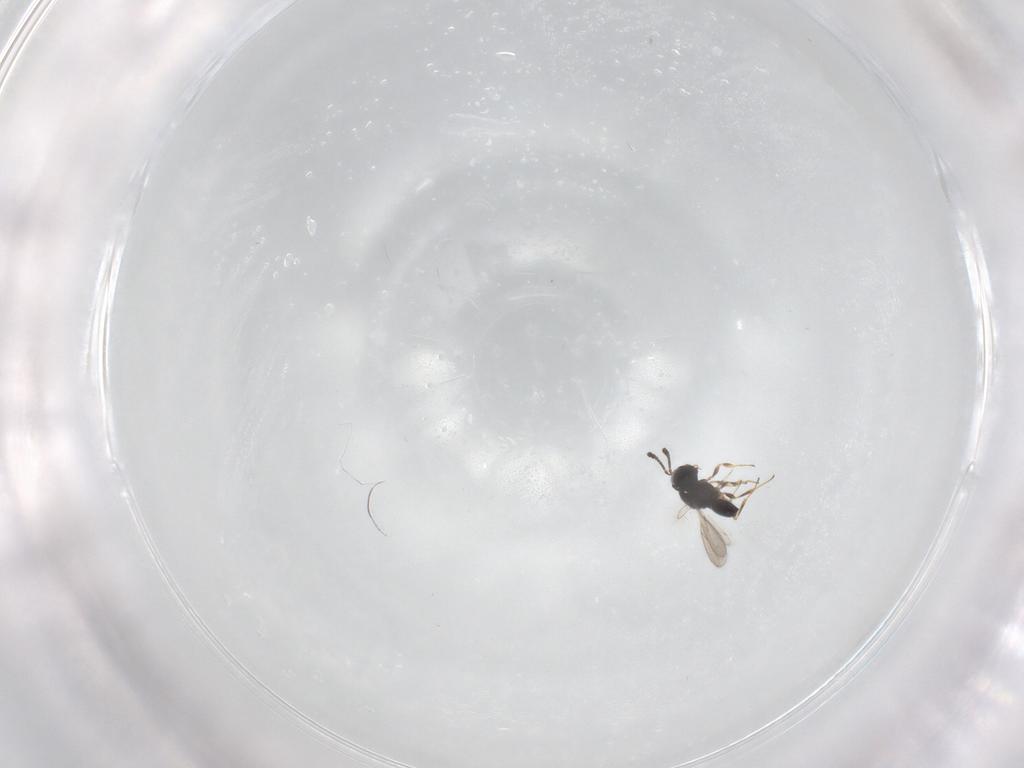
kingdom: Animalia
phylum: Arthropoda
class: Insecta
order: Hymenoptera
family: Scelionidae
